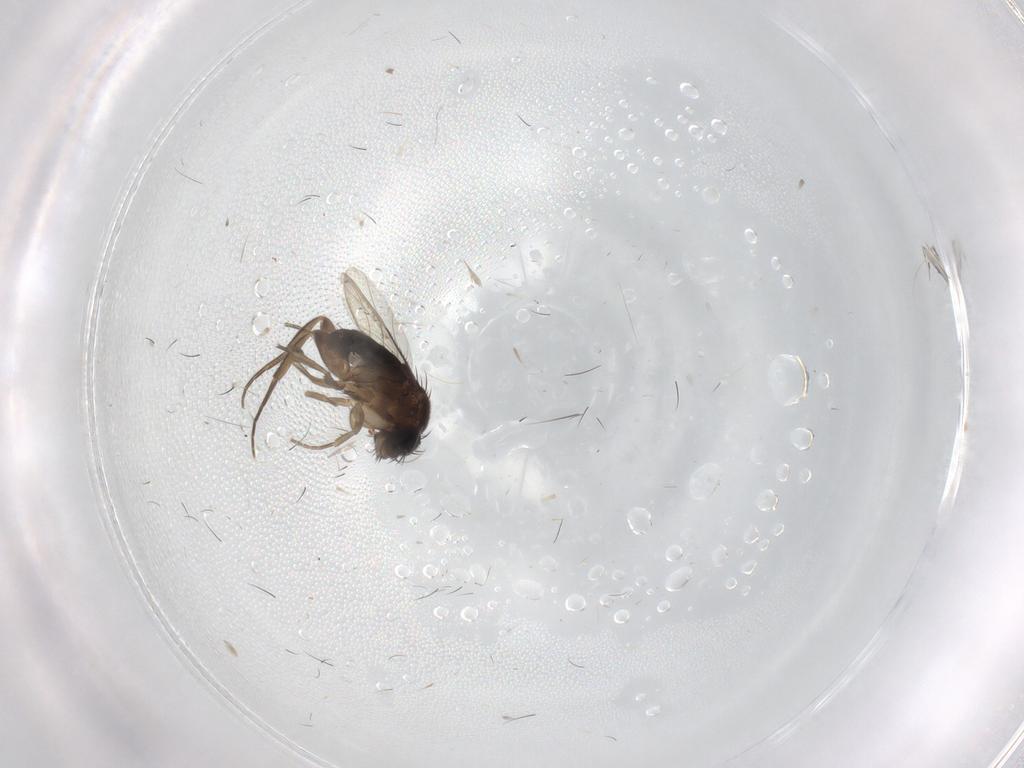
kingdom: Animalia
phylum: Arthropoda
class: Insecta
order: Diptera
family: Phoridae
